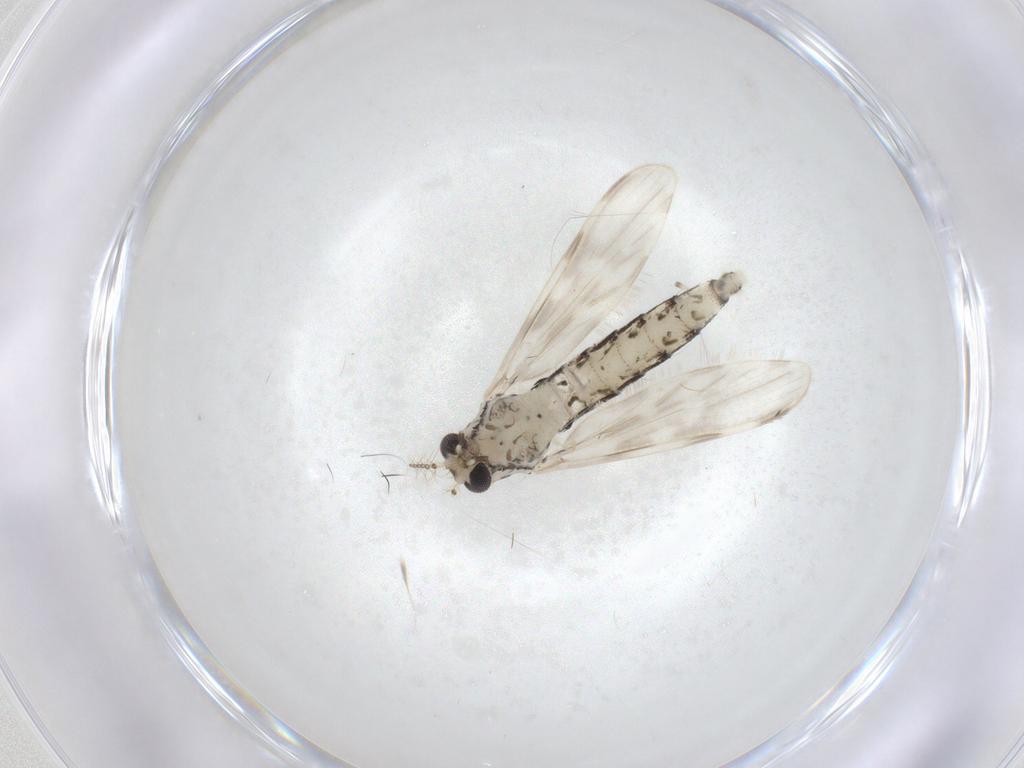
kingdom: Animalia
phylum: Arthropoda
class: Insecta
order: Diptera
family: Chaoboridae
